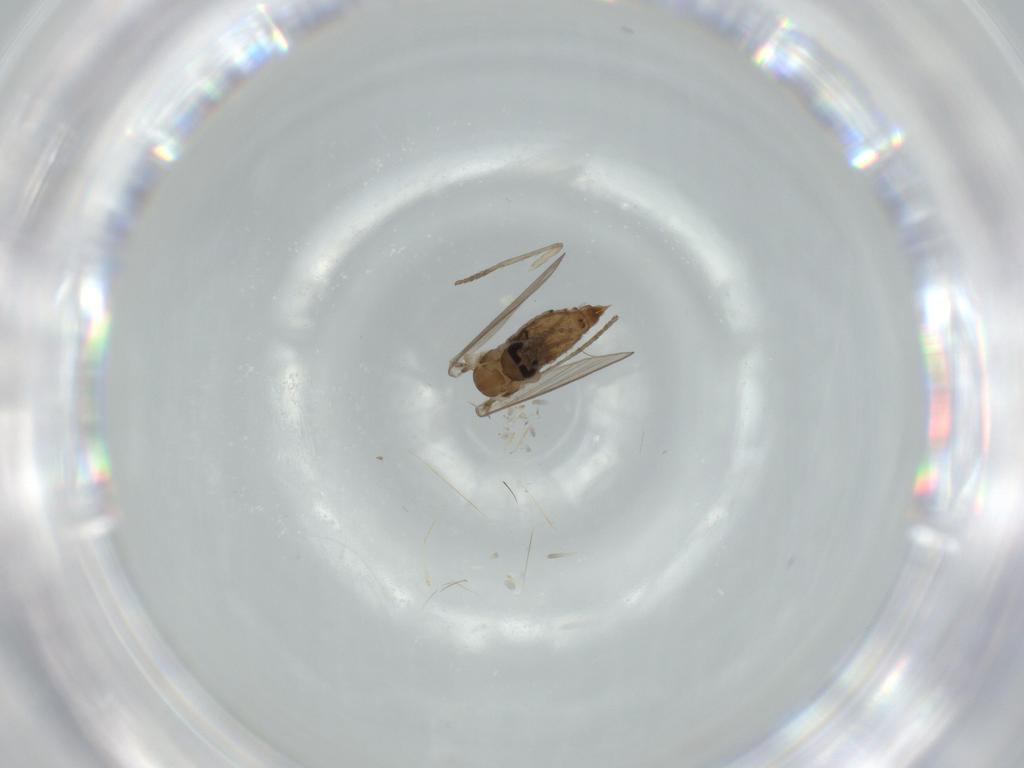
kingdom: Animalia
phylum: Arthropoda
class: Insecta
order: Diptera
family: Psychodidae
